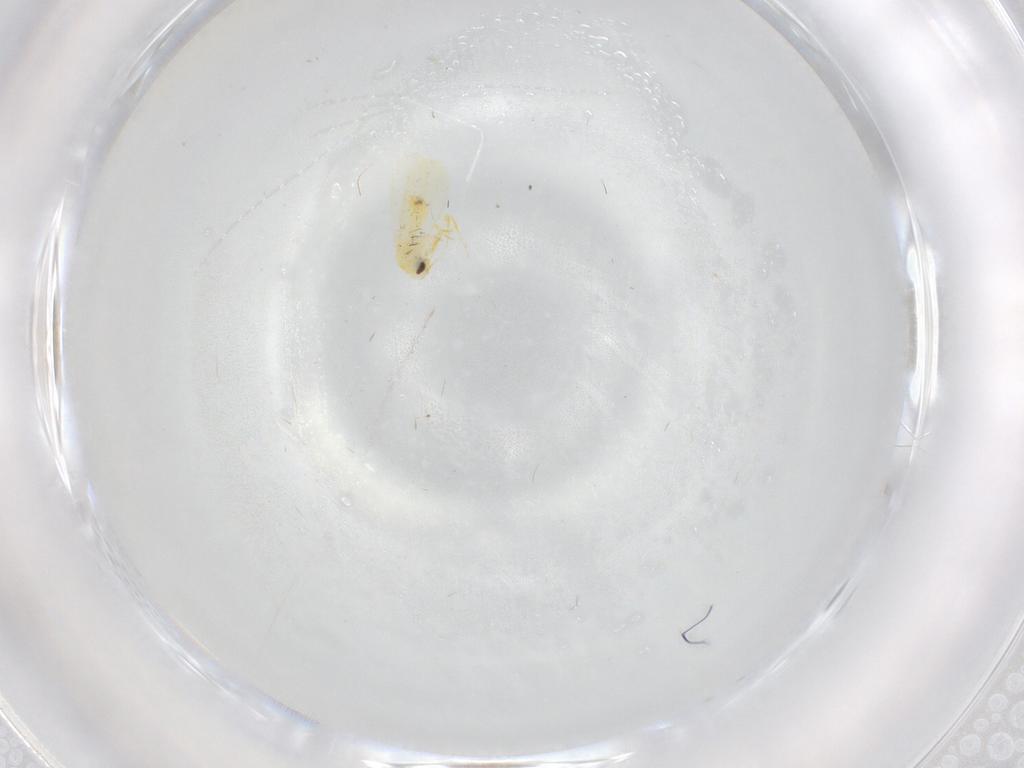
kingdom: Animalia
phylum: Arthropoda
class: Insecta
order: Hemiptera
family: Aleyrodidae
